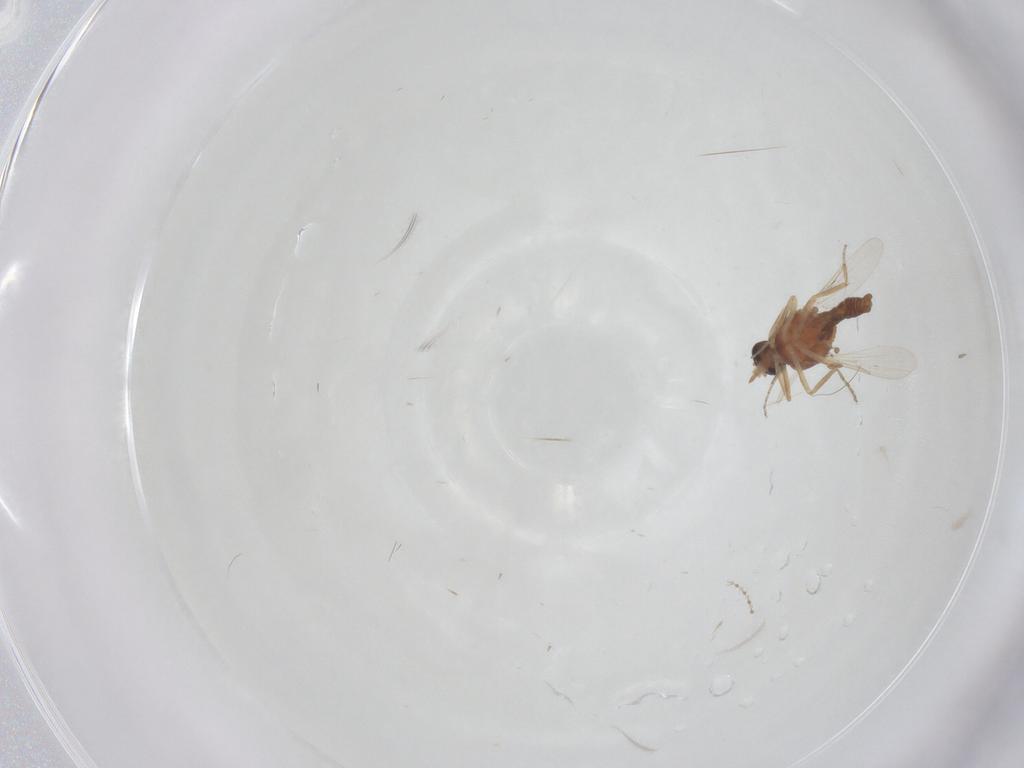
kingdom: Animalia
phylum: Arthropoda
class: Insecta
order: Diptera
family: Ceratopogonidae
